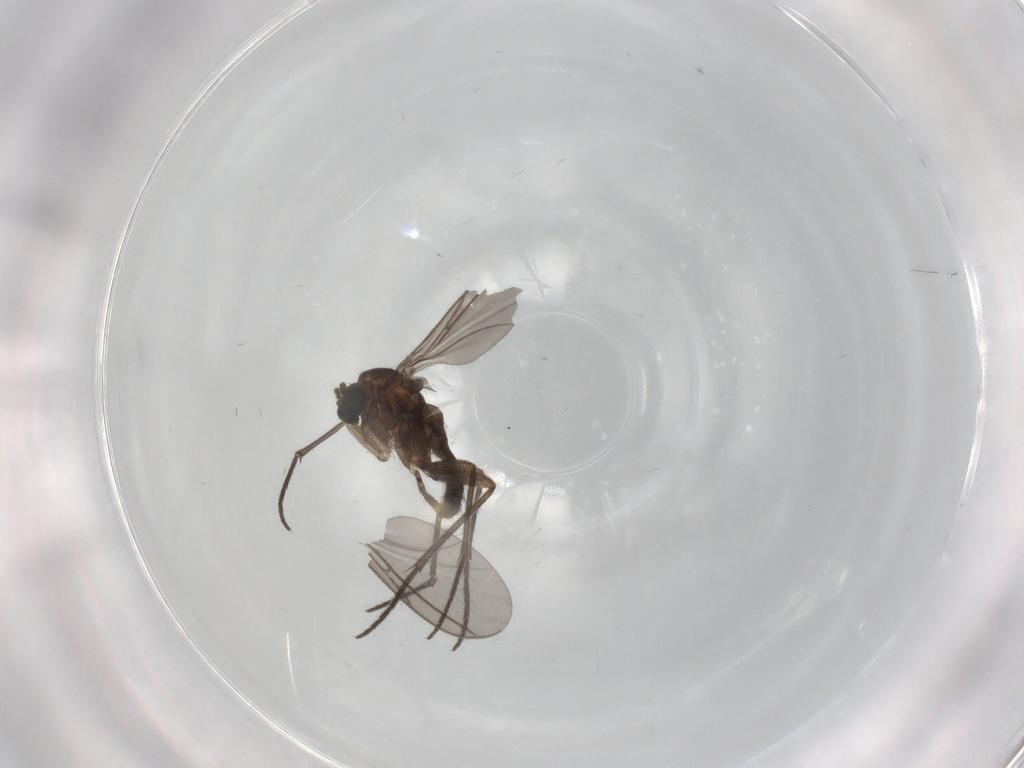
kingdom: Animalia
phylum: Arthropoda
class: Insecta
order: Diptera
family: Sciaridae
